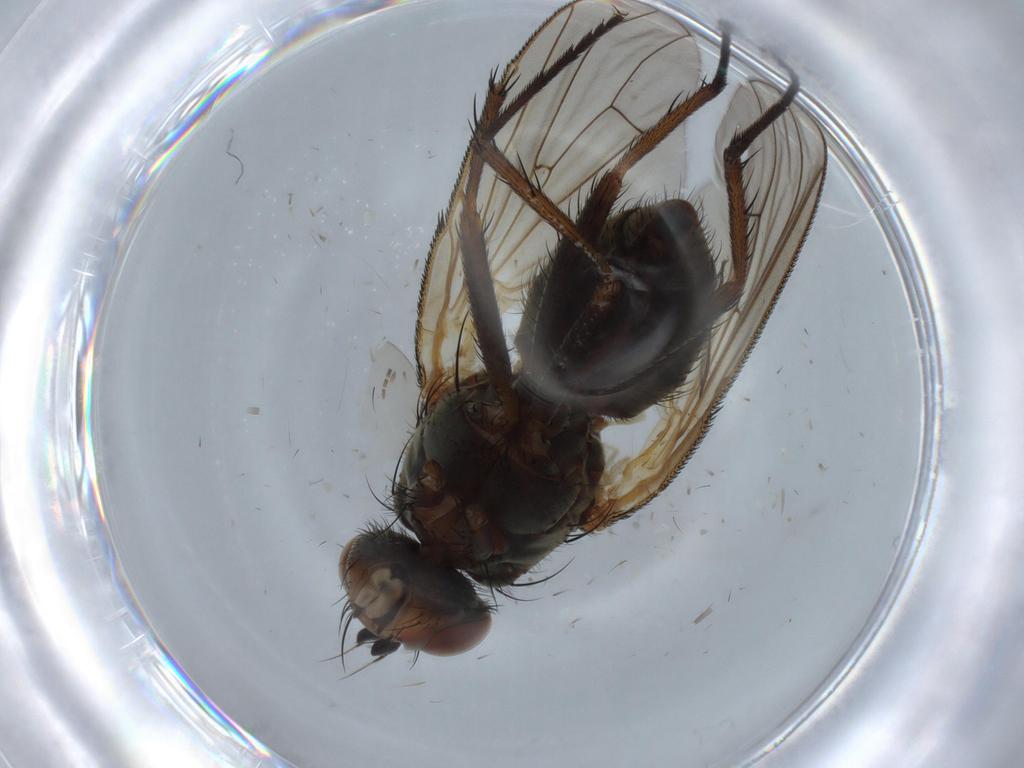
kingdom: Animalia
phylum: Arthropoda
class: Insecta
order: Diptera
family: Anthomyiidae
